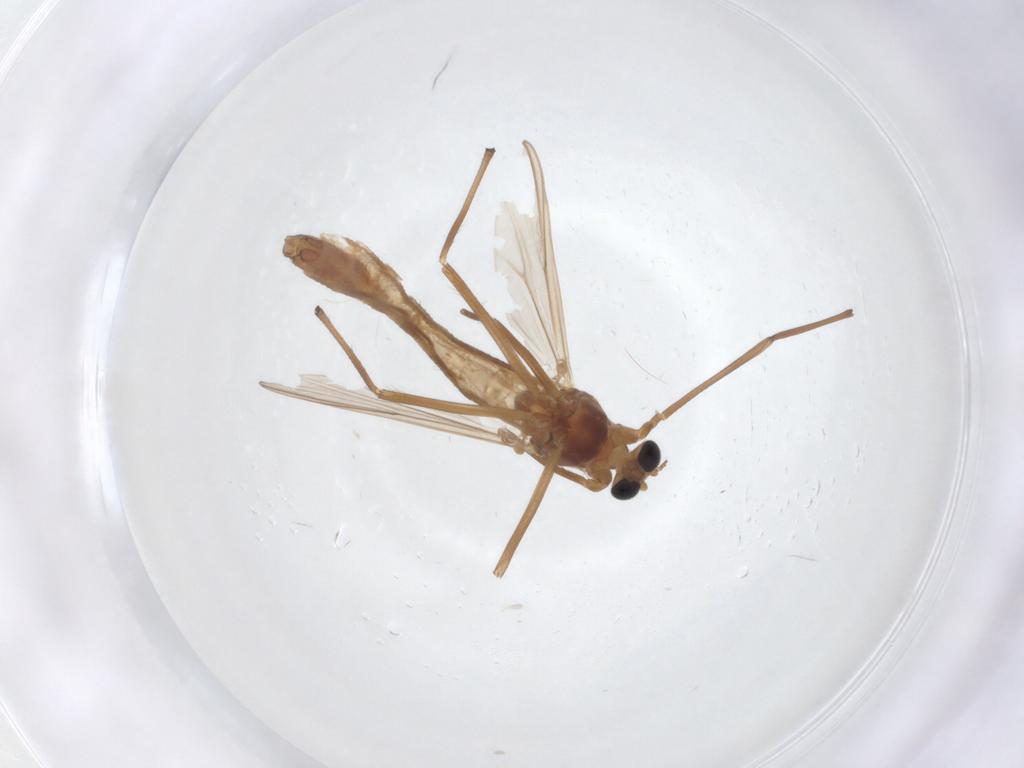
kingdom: Animalia
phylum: Arthropoda
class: Insecta
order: Diptera
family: Chironomidae
